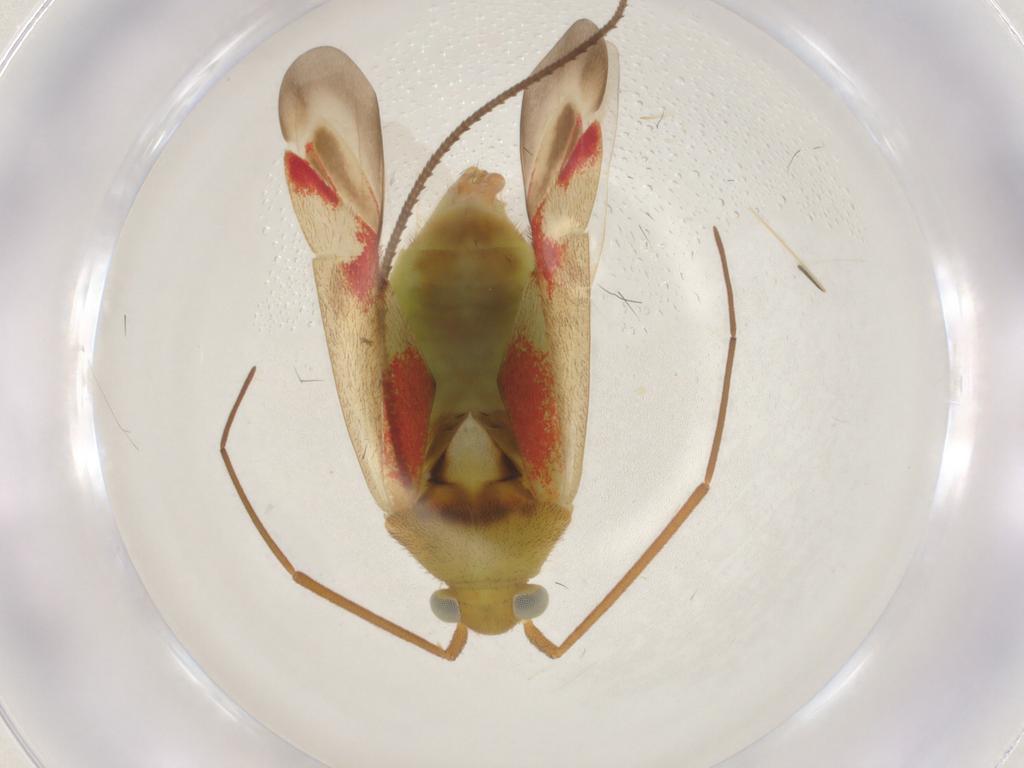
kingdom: Animalia
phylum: Arthropoda
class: Insecta
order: Hemiptera
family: Miridae
